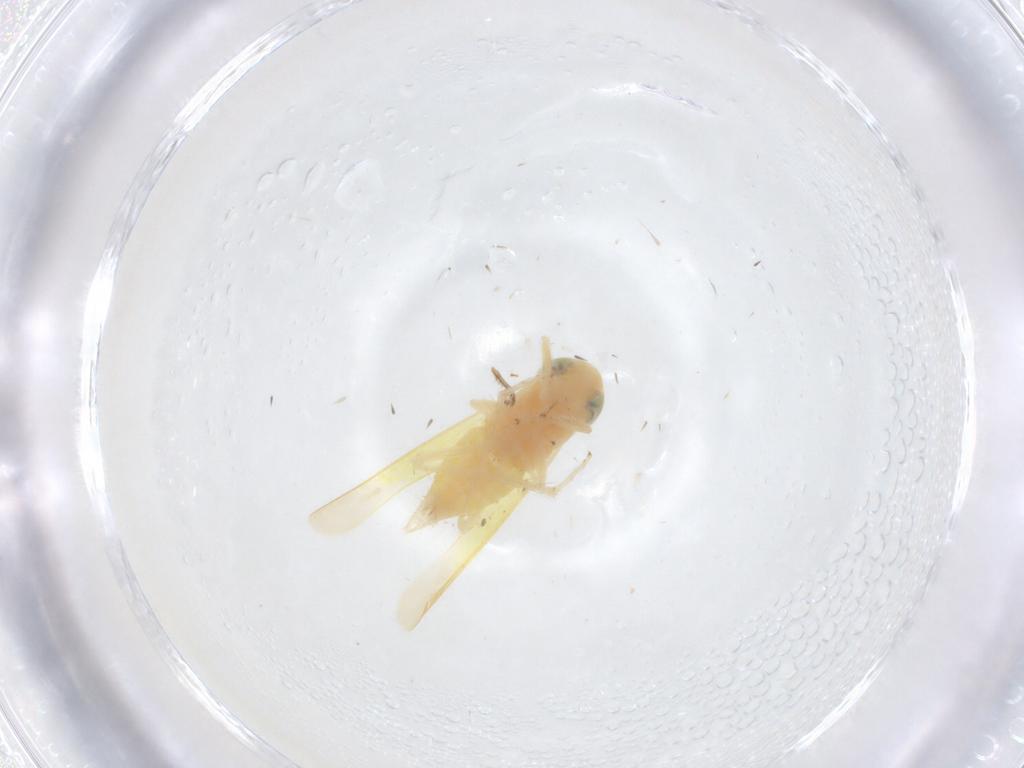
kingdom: Animalia
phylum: Arthropoda
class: Insecta
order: Hemiptera
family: Cicadellidae
